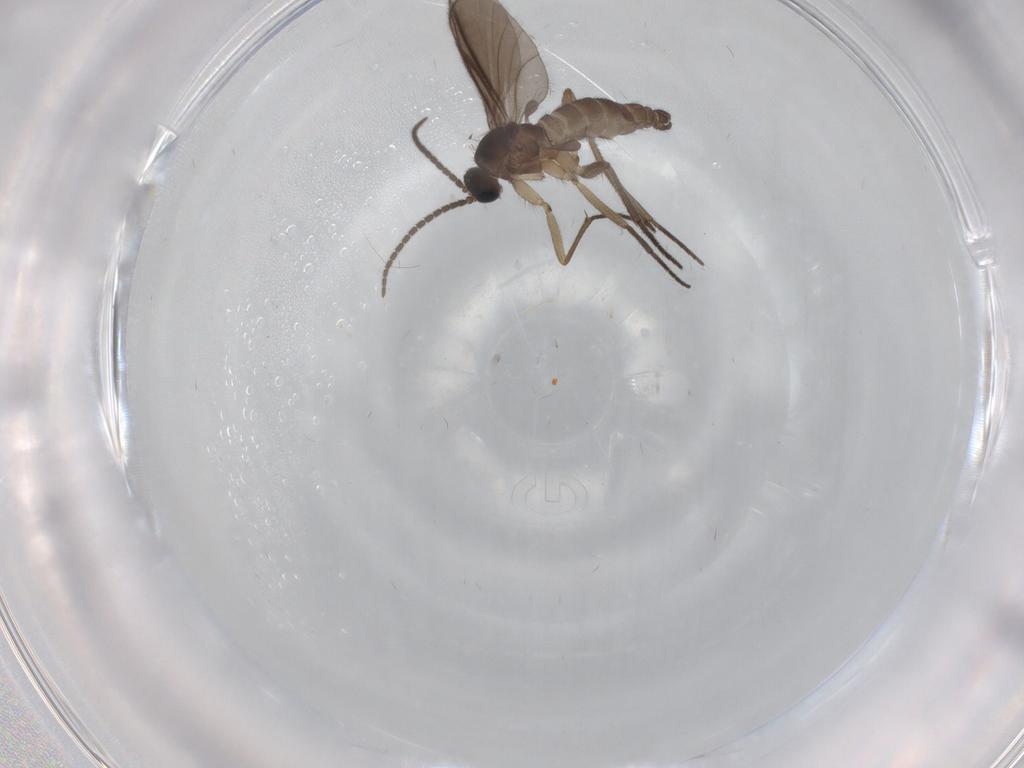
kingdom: Animalia
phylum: Arthropoda
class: Insecta
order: Diptera
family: Sciaridae
